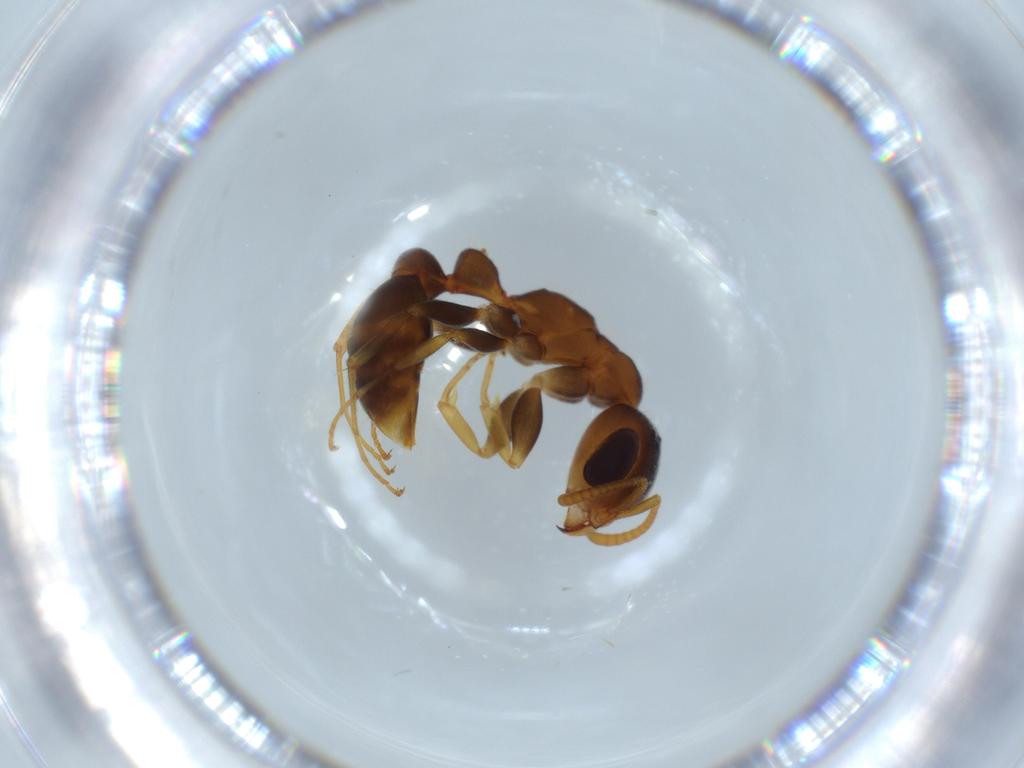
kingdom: Animalia
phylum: Arthropoda
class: Insecta
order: Hymenoptera
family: Formicidae
